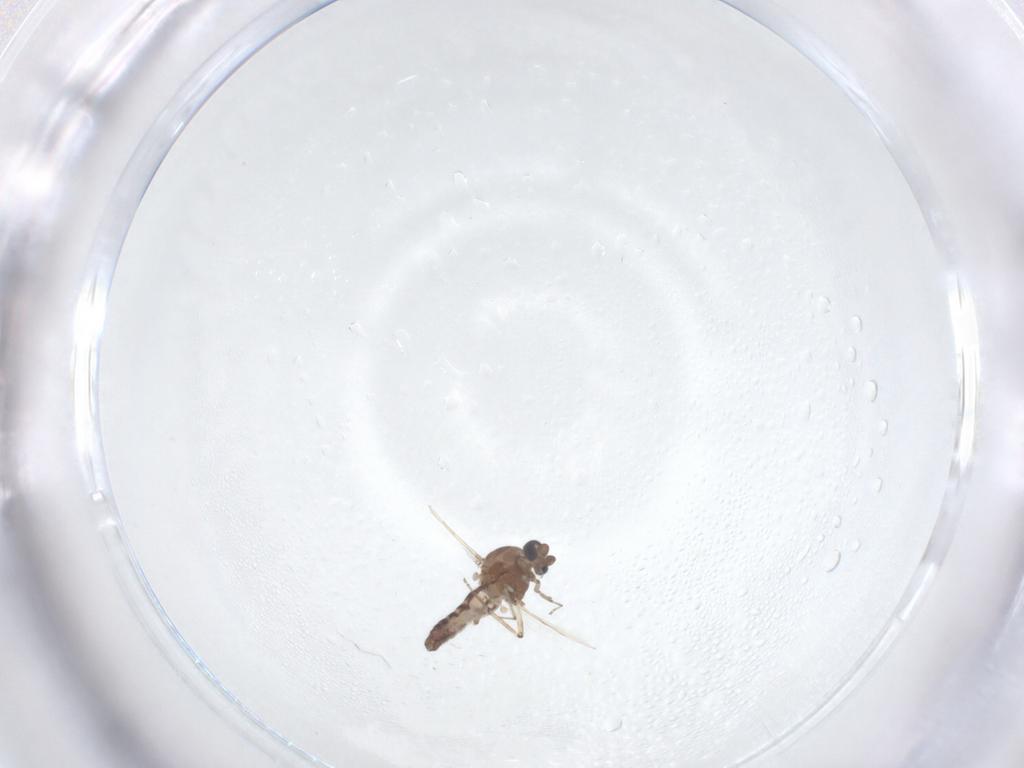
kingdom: Animalia
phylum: Arthropoda
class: Insecta
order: Diptera
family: Ceratopogonidae
